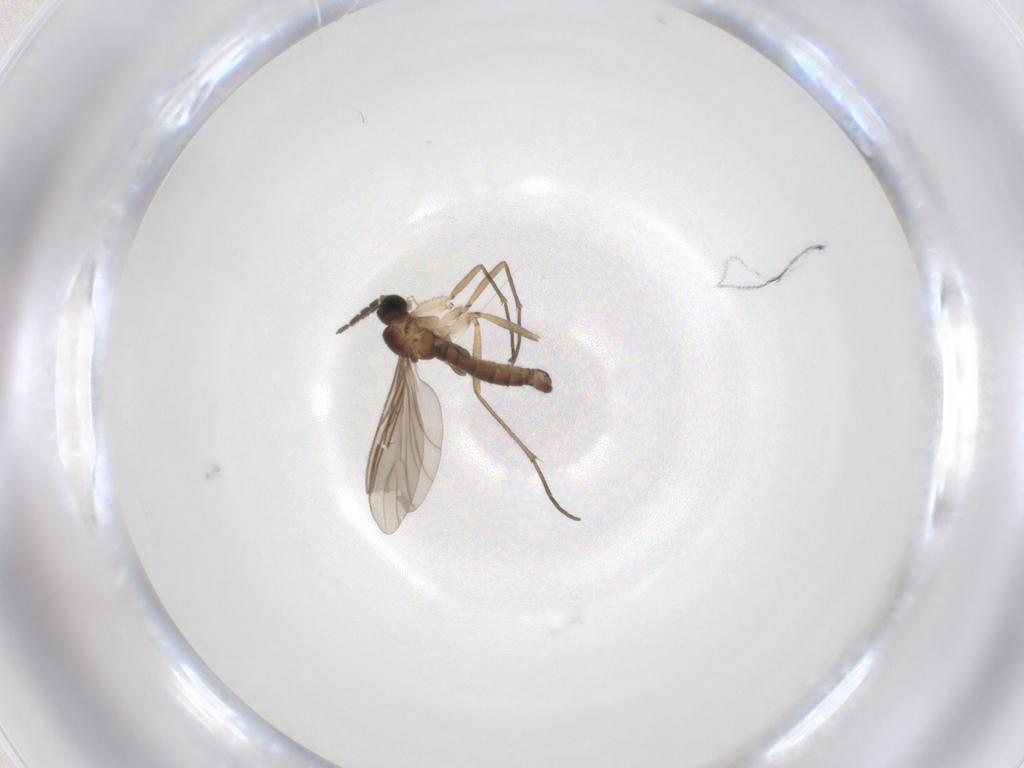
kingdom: Animalia
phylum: Arthropoda
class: Insecta
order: Diptera
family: Sciaridae
